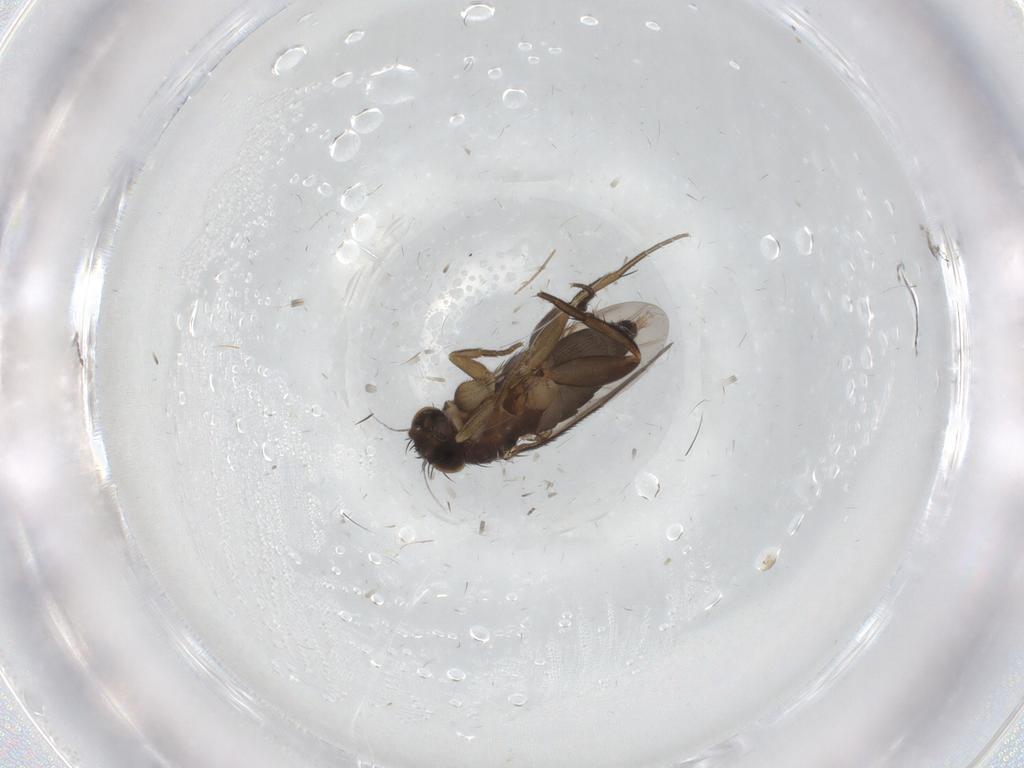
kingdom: Animalia
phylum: Arthropoda
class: Insecta
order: Diptera
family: Phoridae
